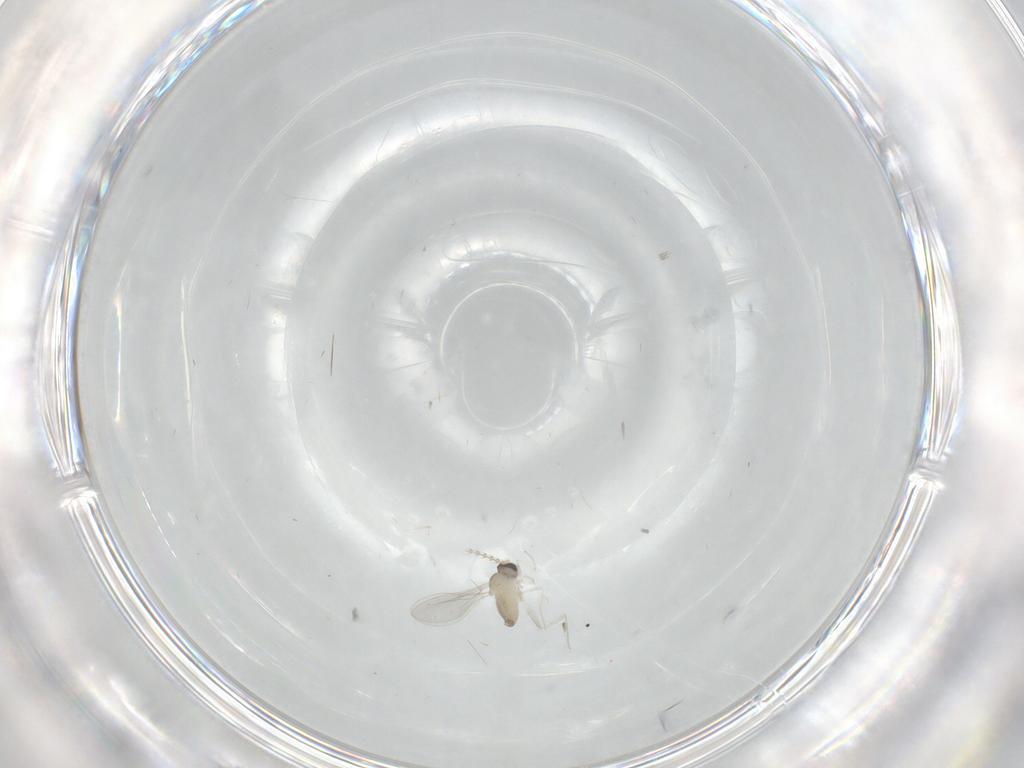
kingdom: Animalia
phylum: Arthropoda
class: Insecta
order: Diptera
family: Cecidomyiidae
